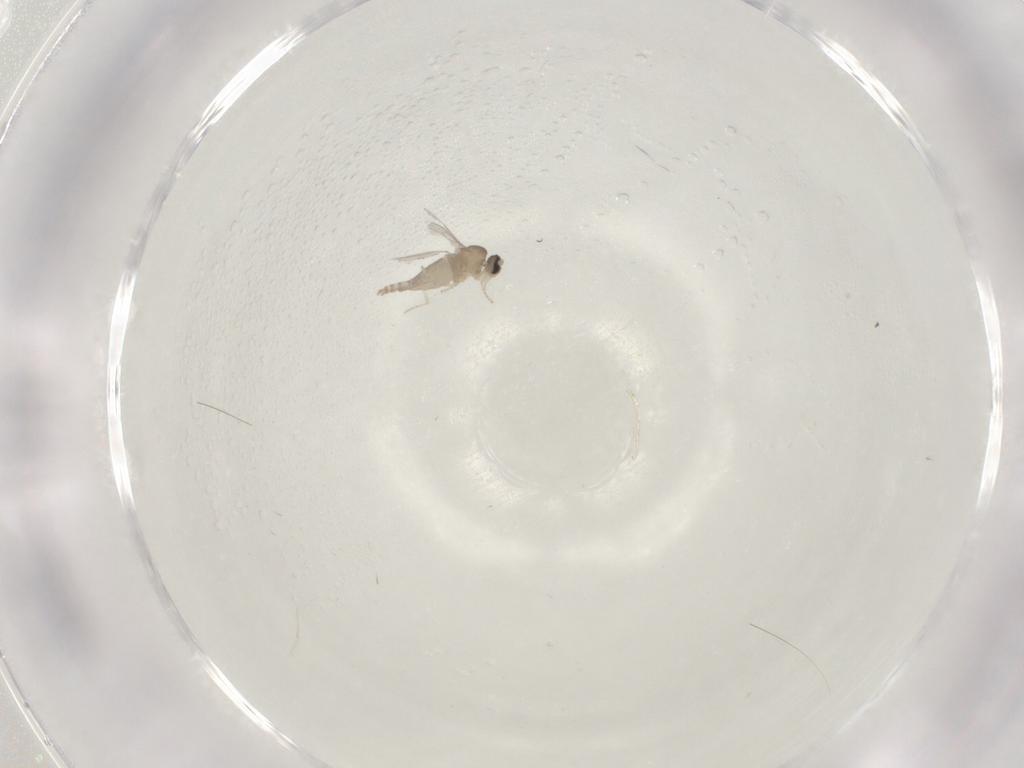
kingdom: Animalia
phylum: Arthropoda
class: Insecta
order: Diptera
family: Cecidomyiidae
